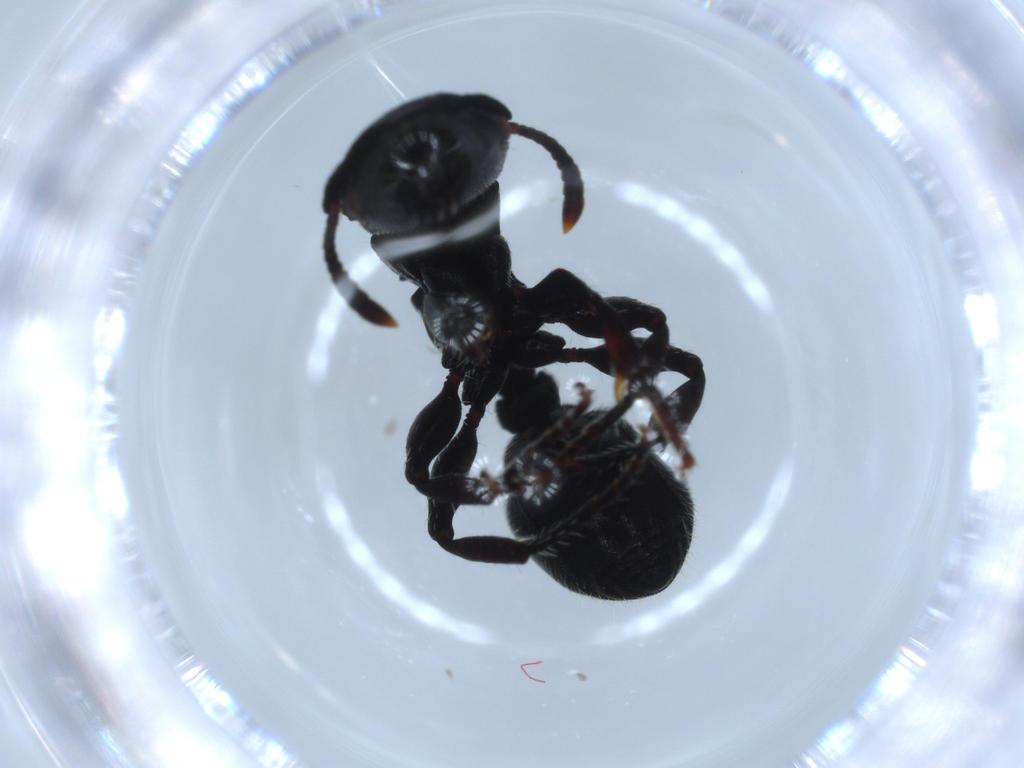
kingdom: Animalia
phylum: Arthropoda
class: Insecta
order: Hymenoptera
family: Formicidae
